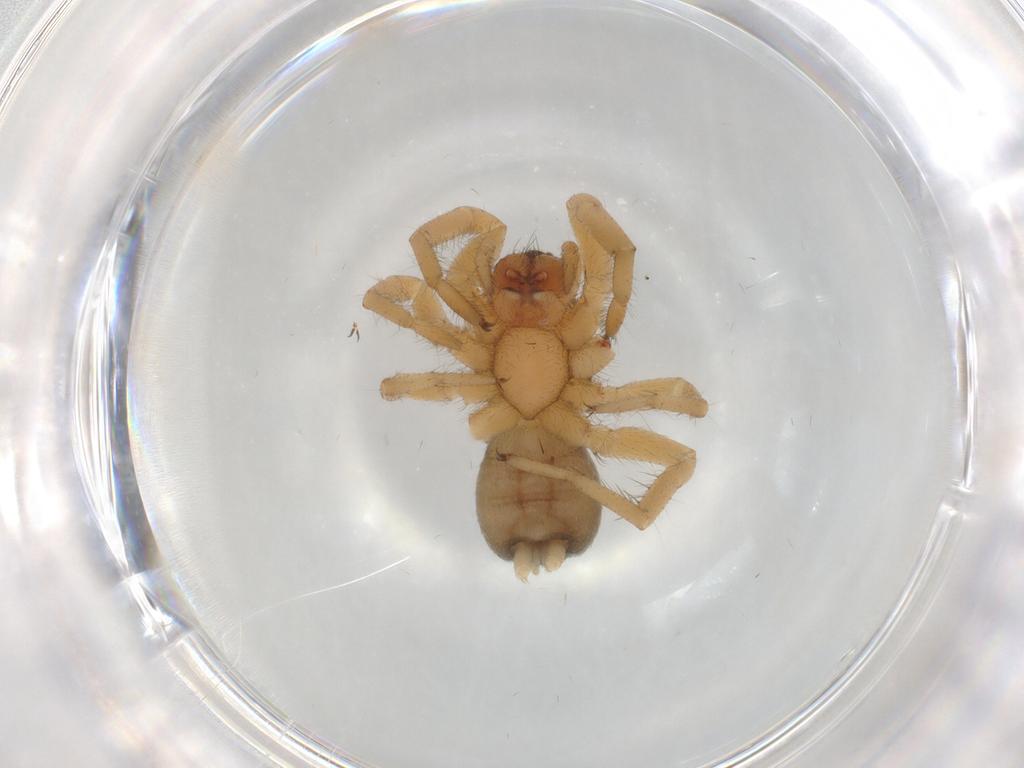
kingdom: Animalia
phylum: Arthropoda
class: Arachnida
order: Araneae
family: Gnaphosidae
